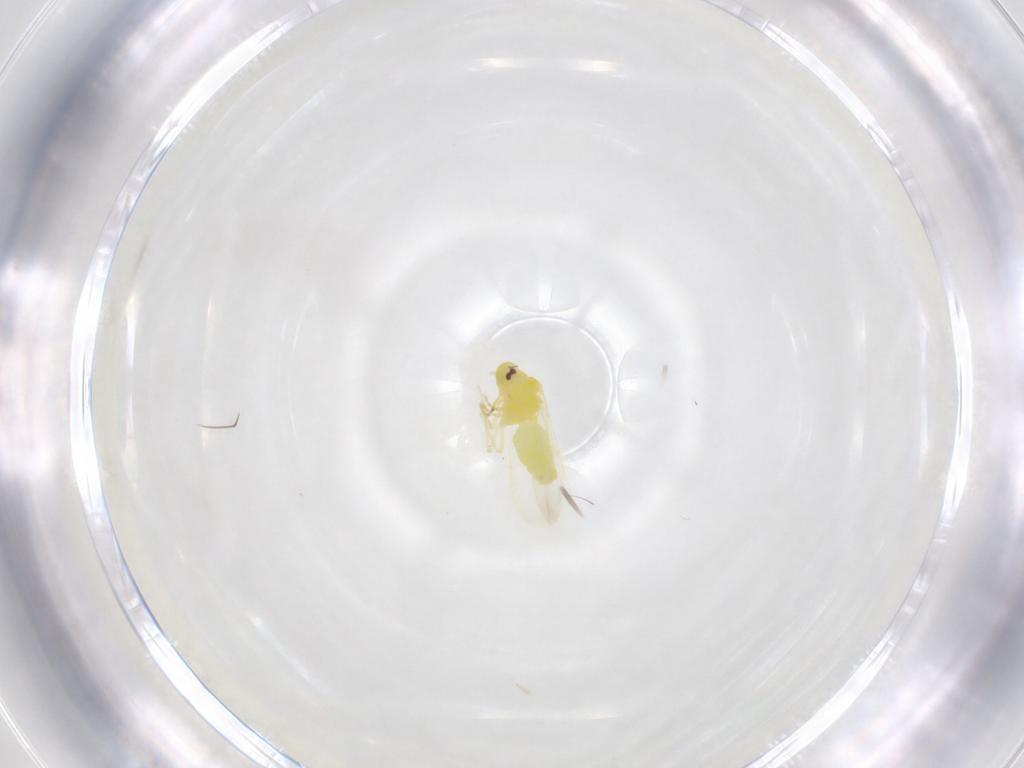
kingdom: Animalia
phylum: Arthropoda
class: Insecta
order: Hemiptera
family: Aleyrodidae
